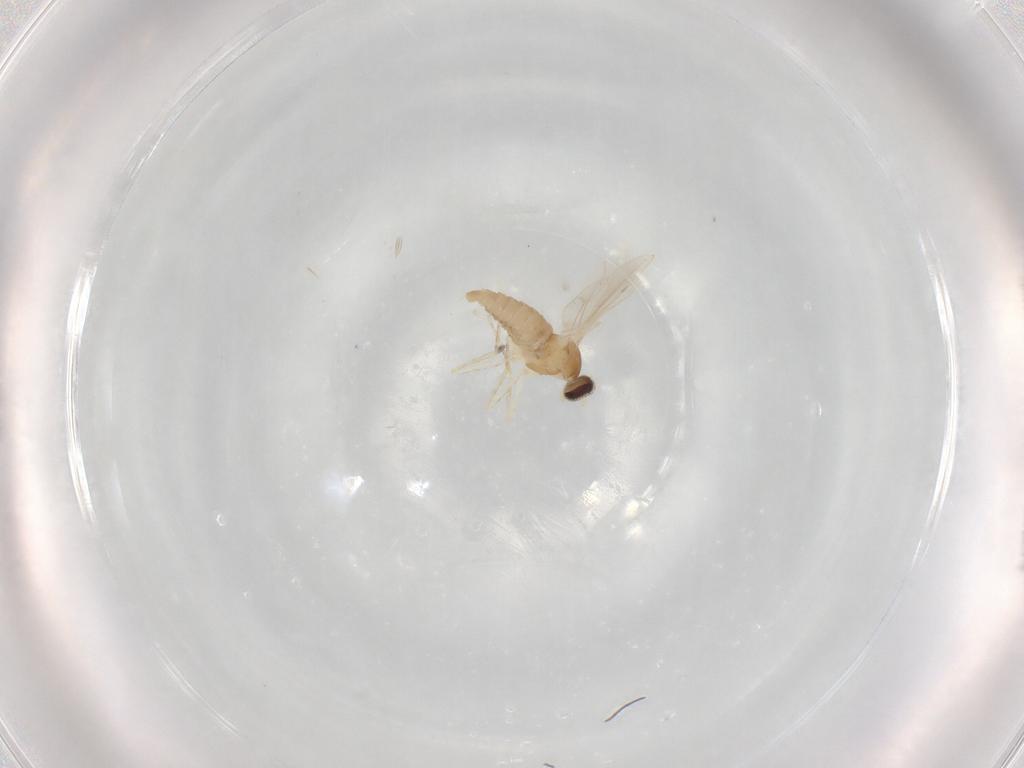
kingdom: Animalia
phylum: Arthropoda
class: Insecta
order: Diptera
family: Cecidomyiidae
